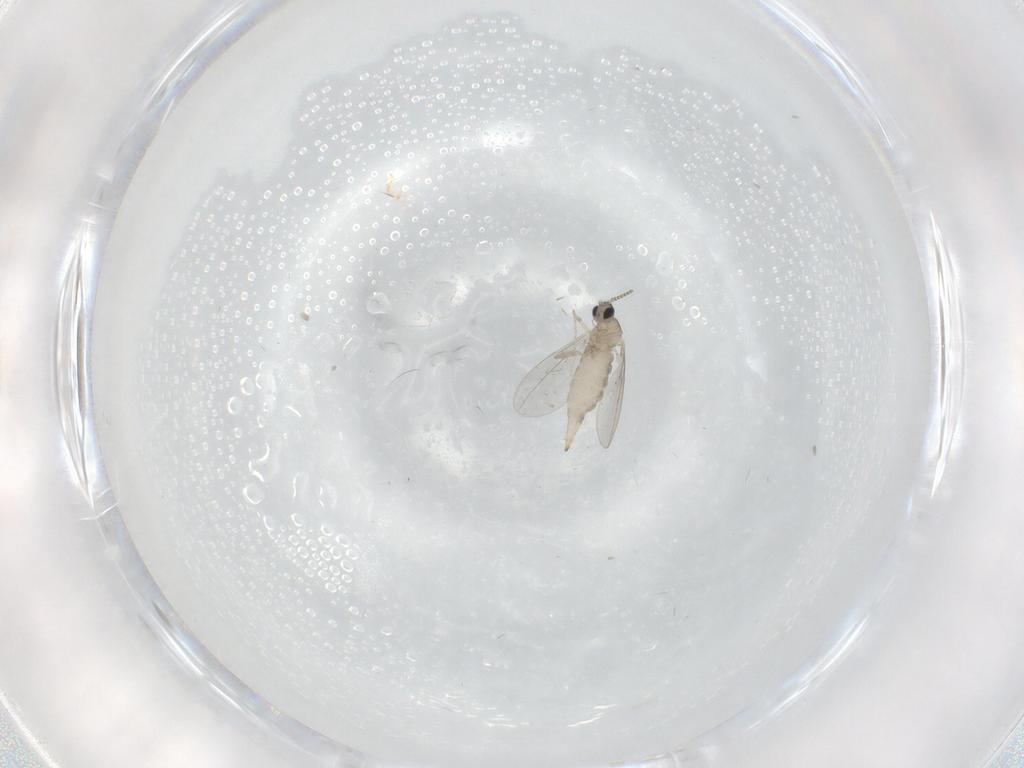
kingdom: Animalia
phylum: Arthropoda
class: Insecta
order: Diptera
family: Cecidomyiidae
